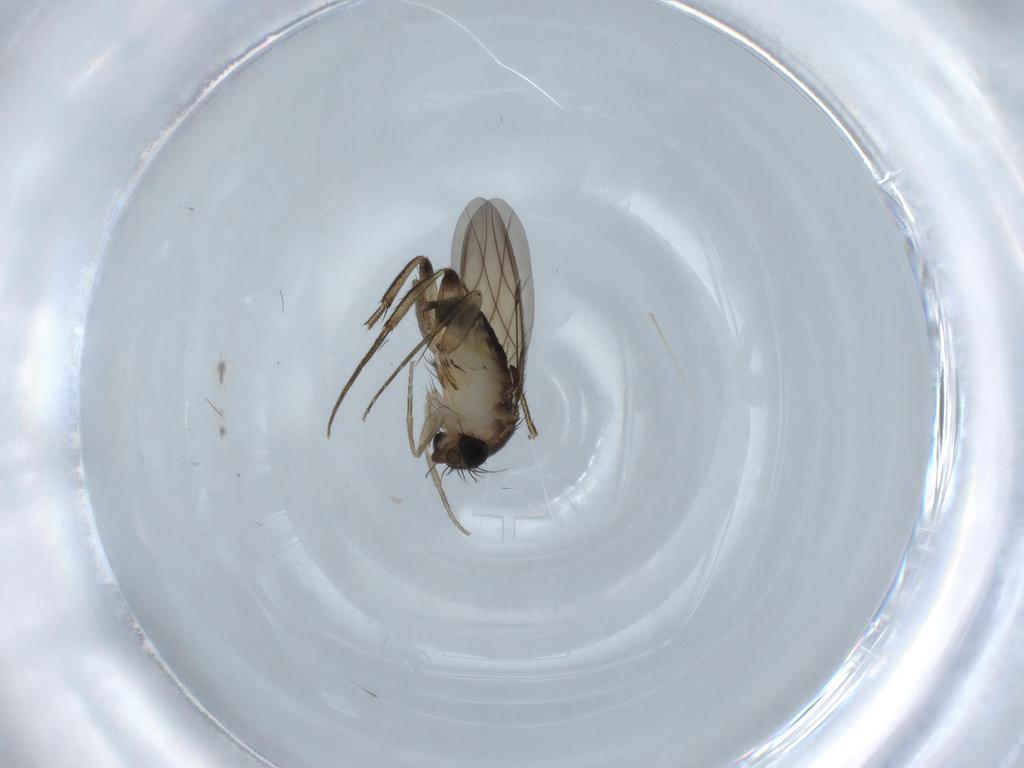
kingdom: Animalia
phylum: Arthropoda
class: Insecta
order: Diptera
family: Phoridae
